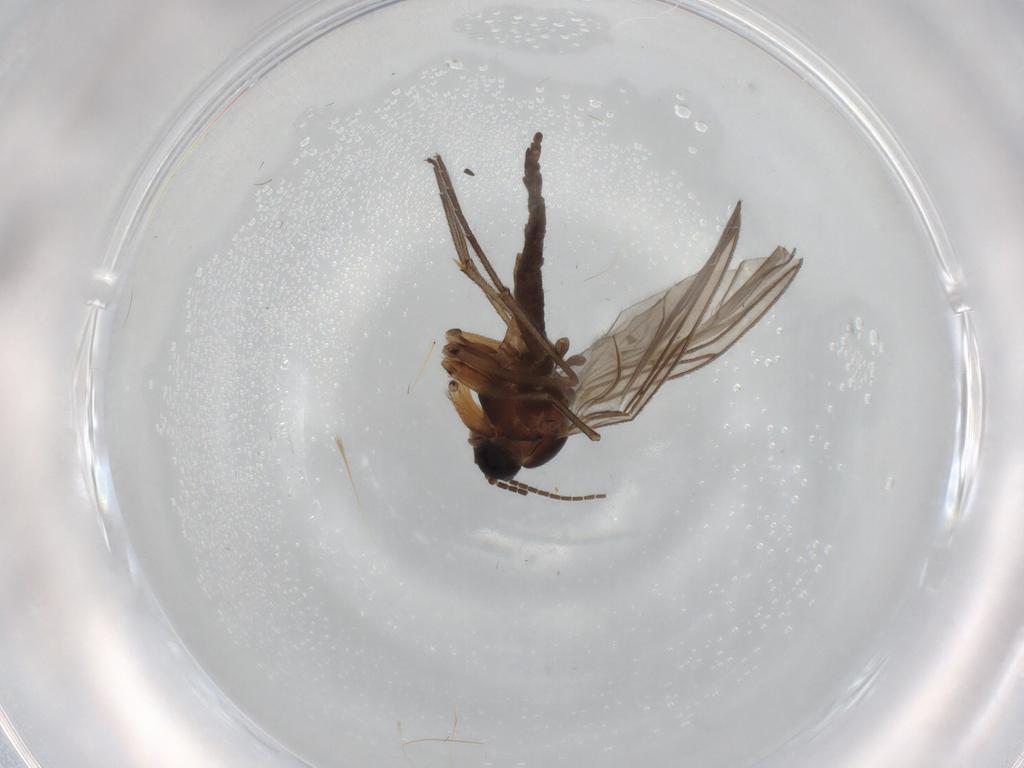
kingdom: Animalia
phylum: Arthropoda
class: Insecta
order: Diptera
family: Sciaridae
